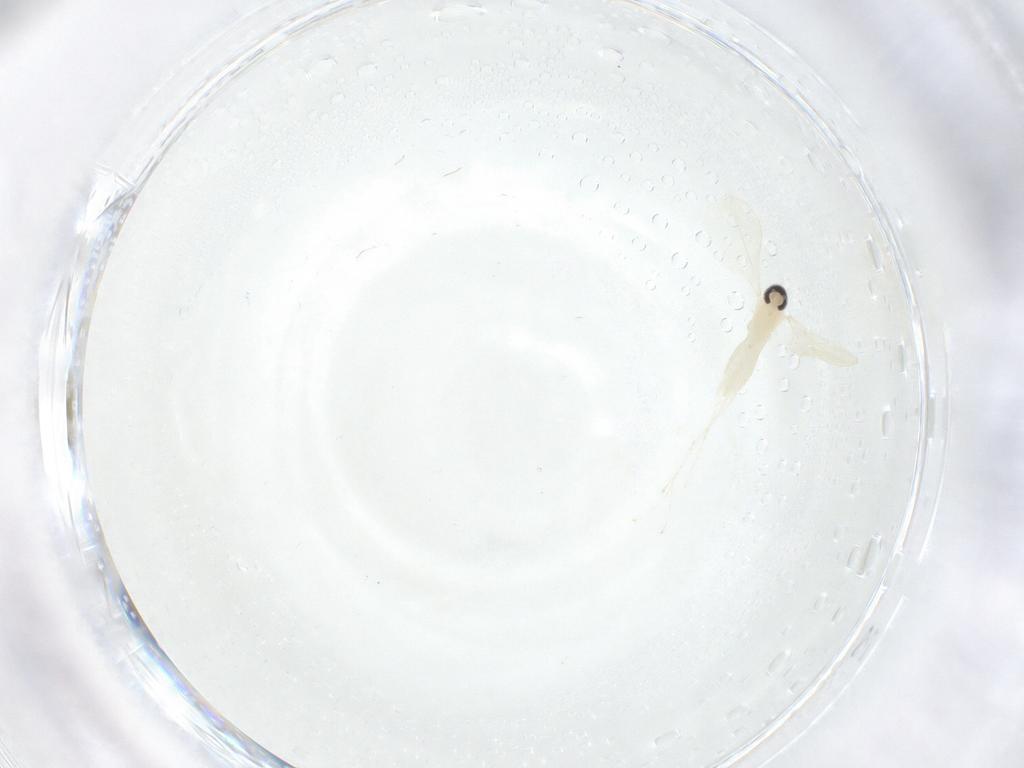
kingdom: Animalia
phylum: Arthropoda
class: Insecta
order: Diptera
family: Cecidomyiidae
